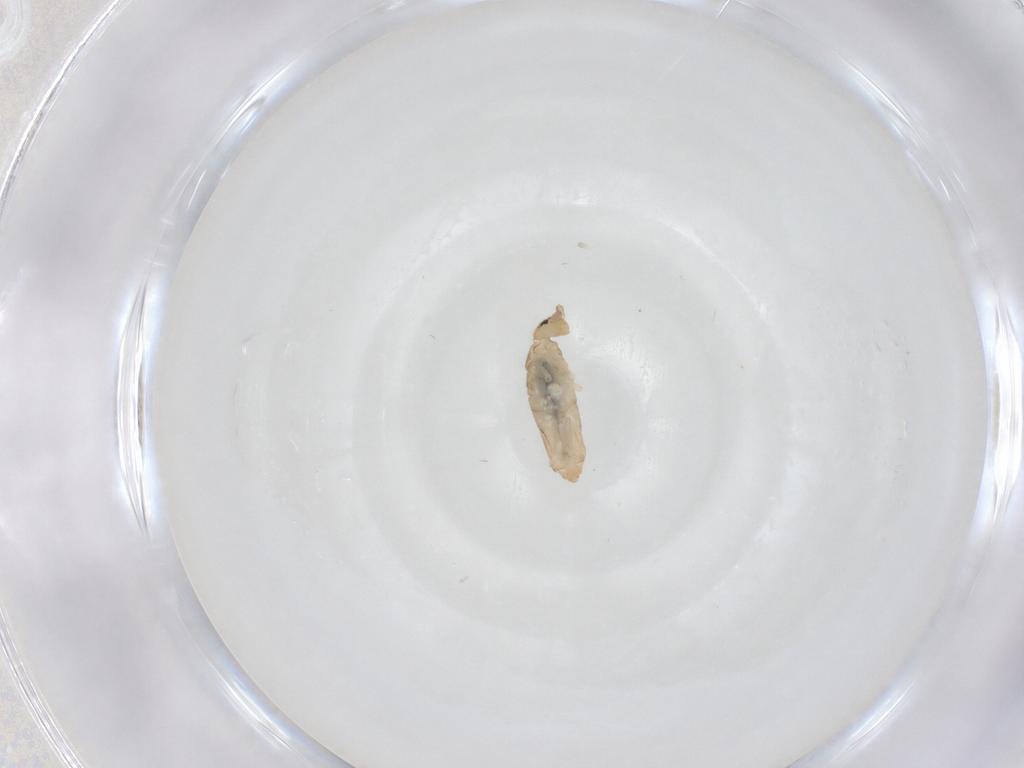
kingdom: Animalia
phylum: Arthropoda
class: Collembola
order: Entomobryomorpha
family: Entomobryidae
